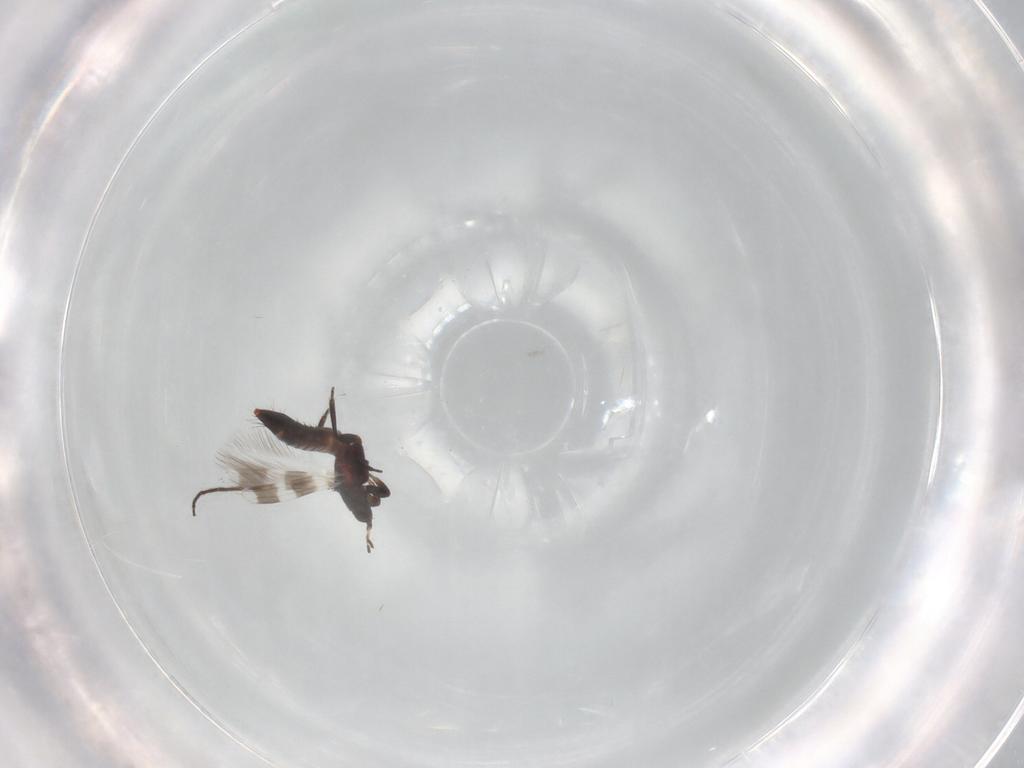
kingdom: Animalia
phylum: Arthropoda
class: Insecta
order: Thysanoptera
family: Aeolothripidae
